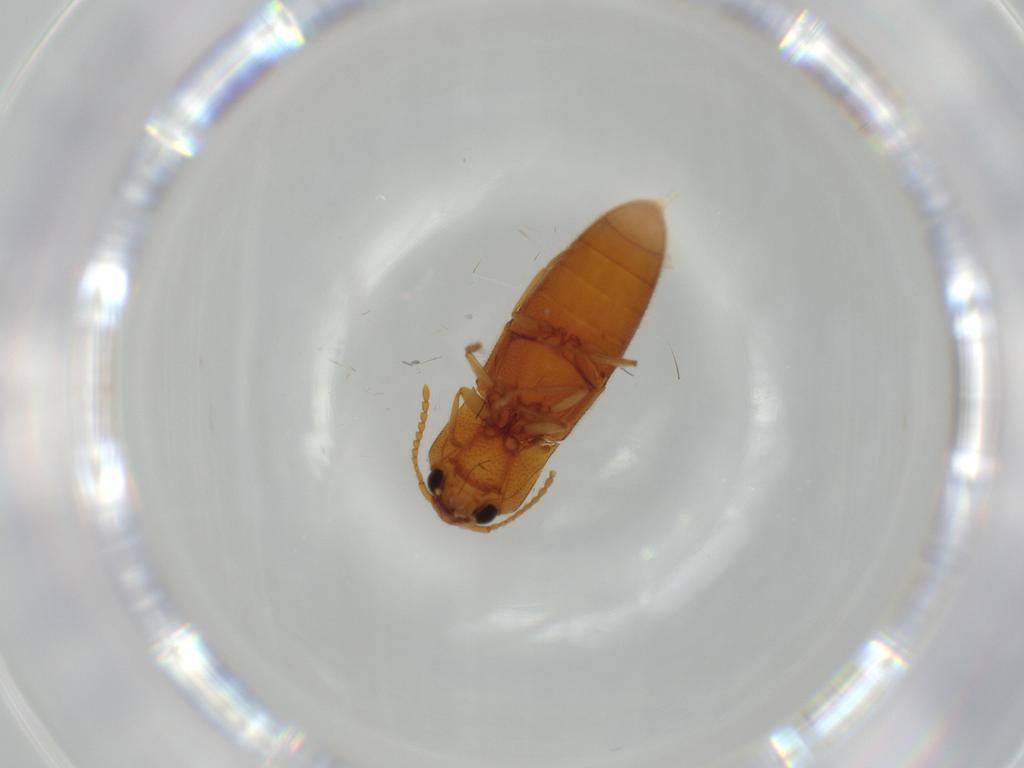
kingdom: Animalia
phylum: Arthropoda
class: Insecta
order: Coleoptera
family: Elateridae
